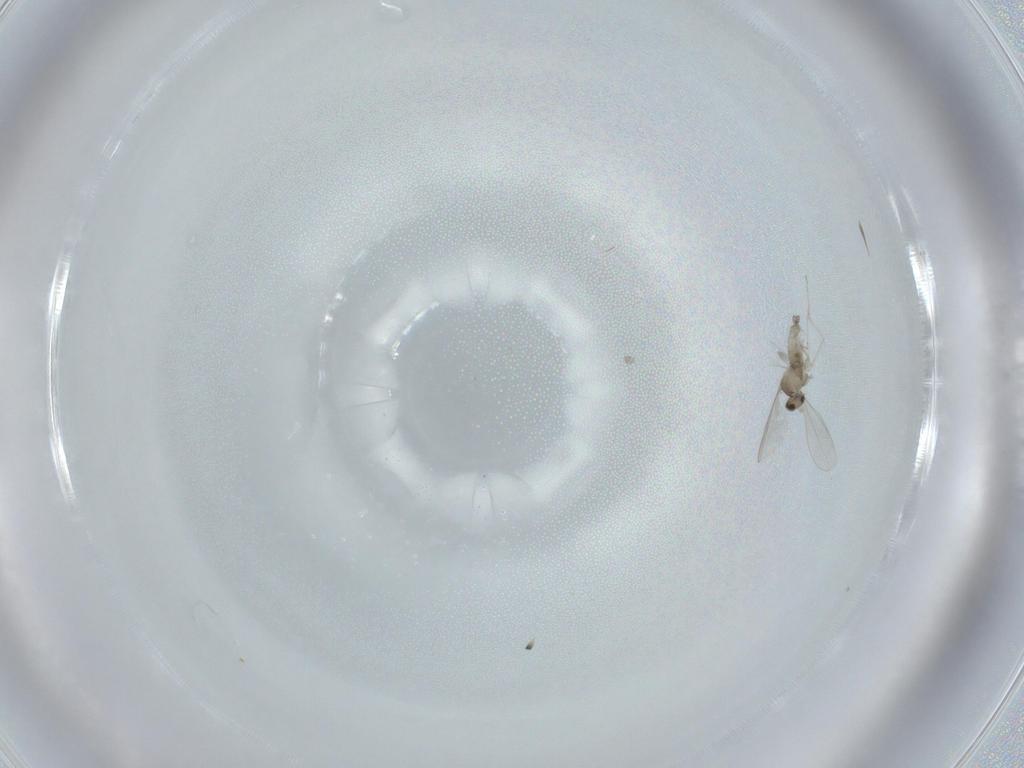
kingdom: Animalia
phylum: Arthropoda
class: Insecta
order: Diptera
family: Cecidomyiidae
